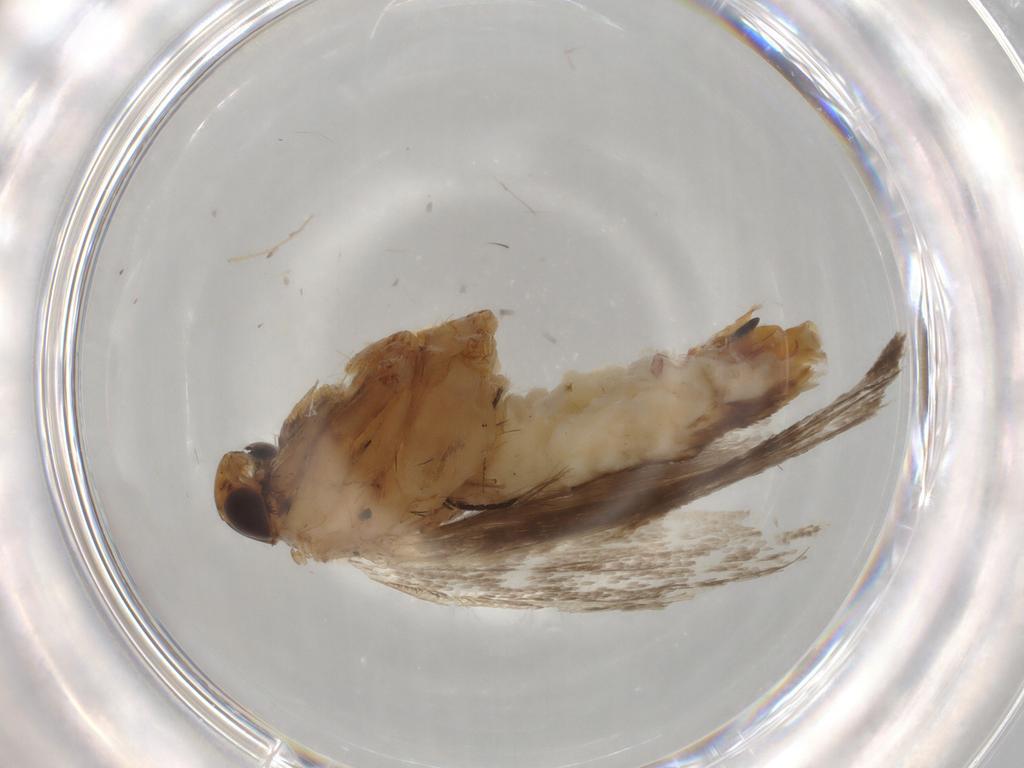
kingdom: Animalia
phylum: Arthropoda
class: Insecta
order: Lepidoptera
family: Gelechiidae
